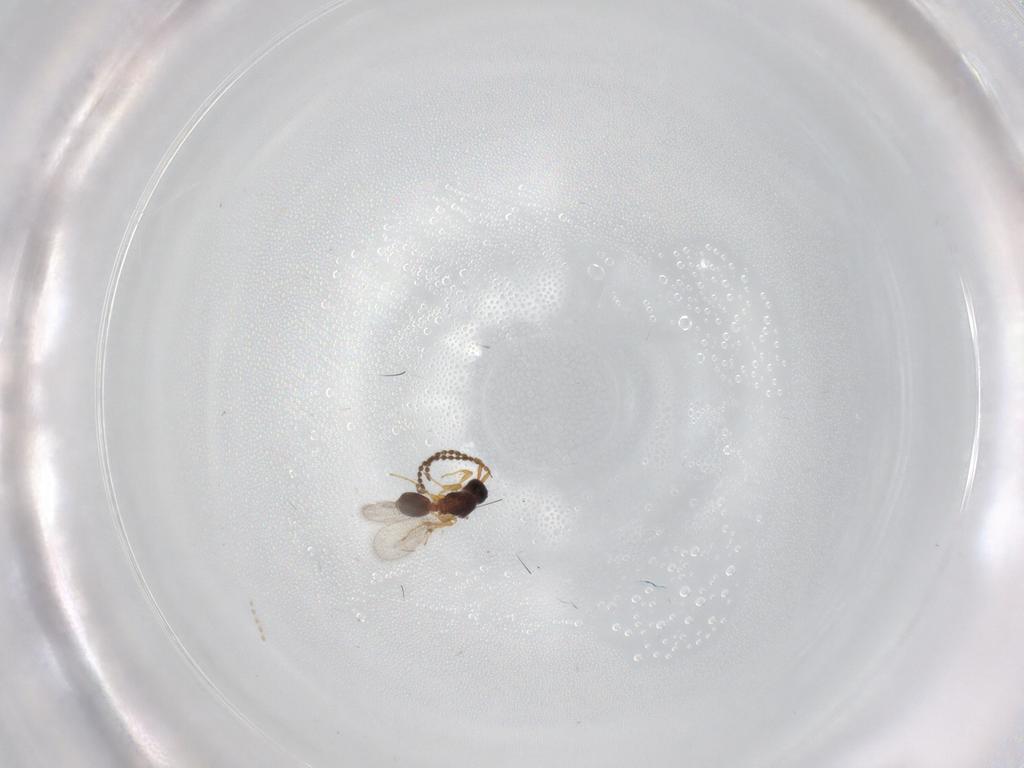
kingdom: Animalia
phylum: Arthropoda
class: Insecta
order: Hymenoptera
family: Diapriidae
